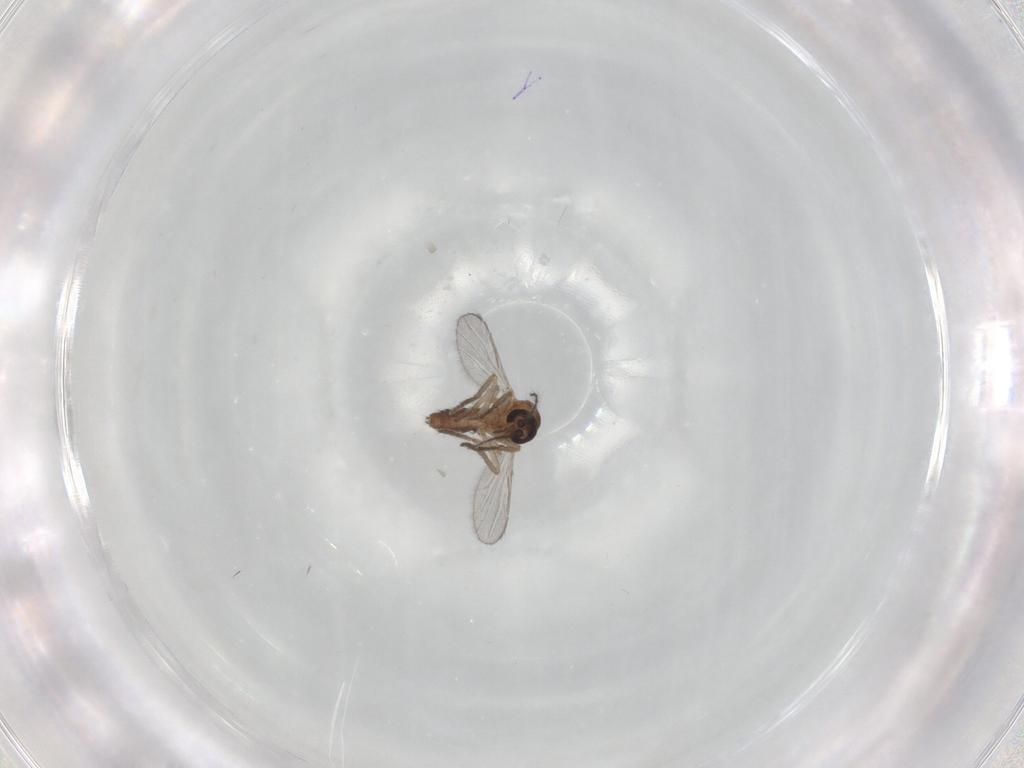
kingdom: Animalia
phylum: Arthropoda
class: Insecta
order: Diptera
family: Ceratopogonidae
